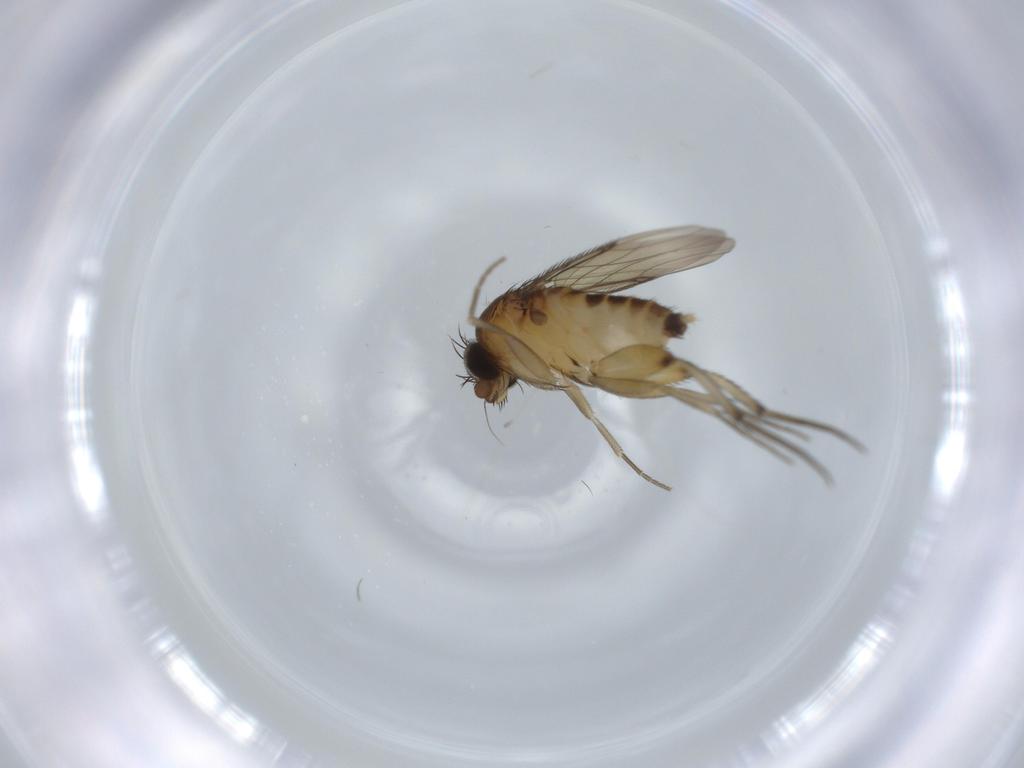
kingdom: Animalia
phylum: Arthropoda
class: Insecta
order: Diptera
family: Phoridae
